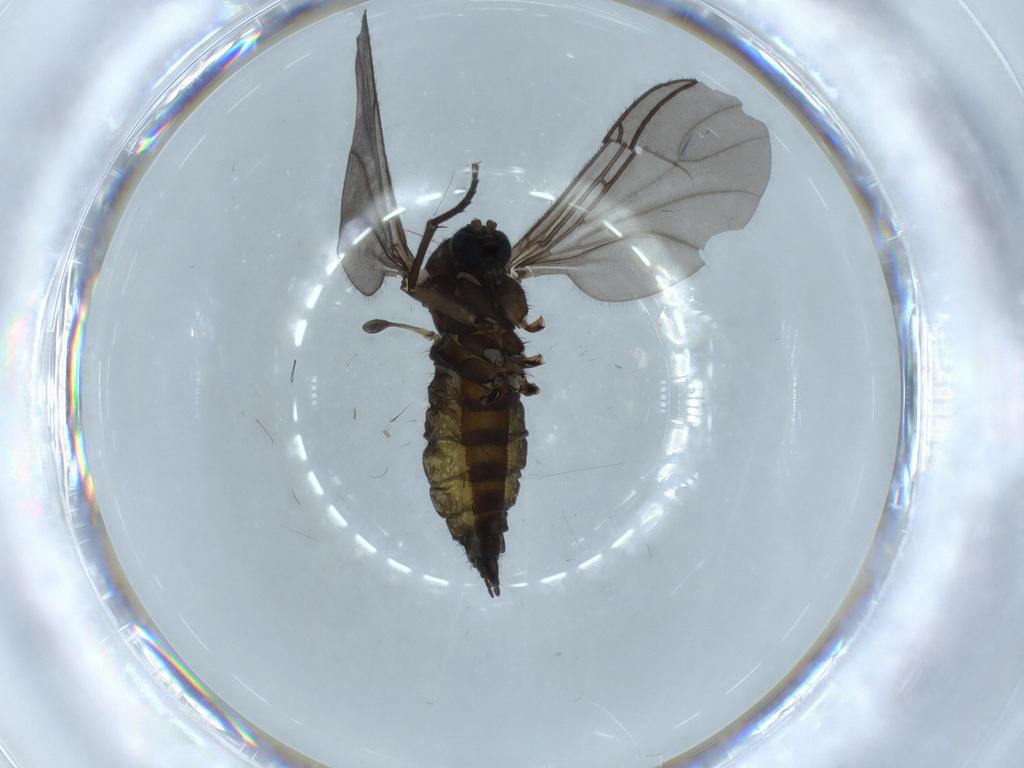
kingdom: Animalia
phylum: Arthropoda
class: Insecta
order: Diptera
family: Sciaridae
